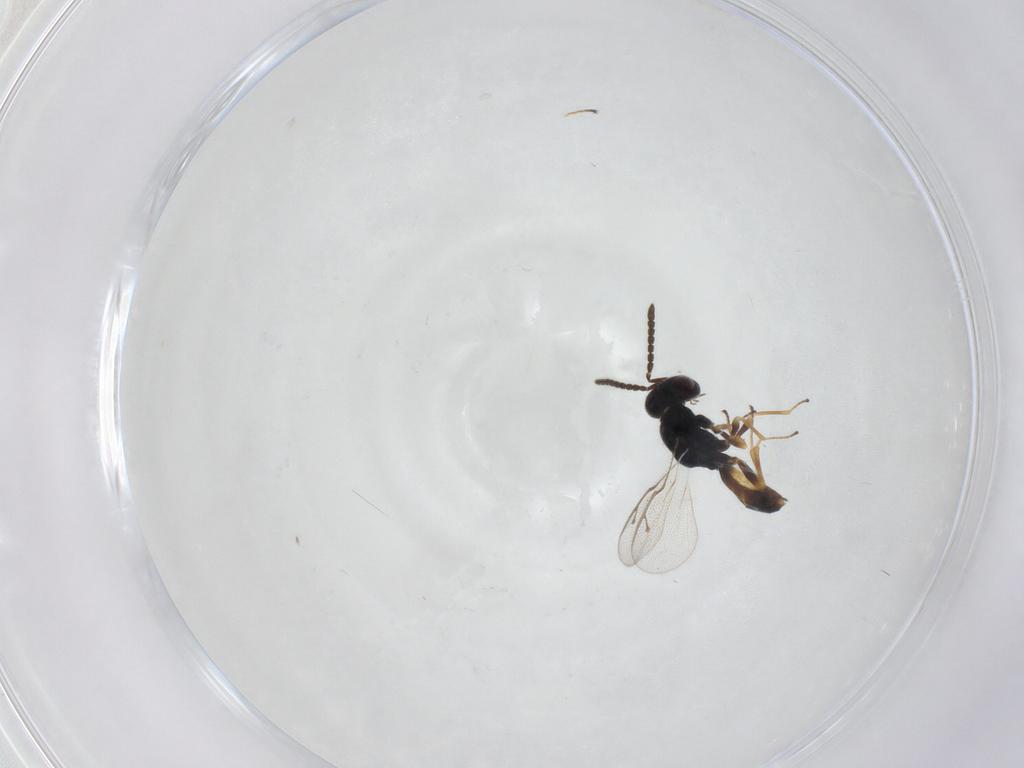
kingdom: Animalia
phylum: Arthropoda
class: Insecta
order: Hymenoptera
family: Pteromalidae
